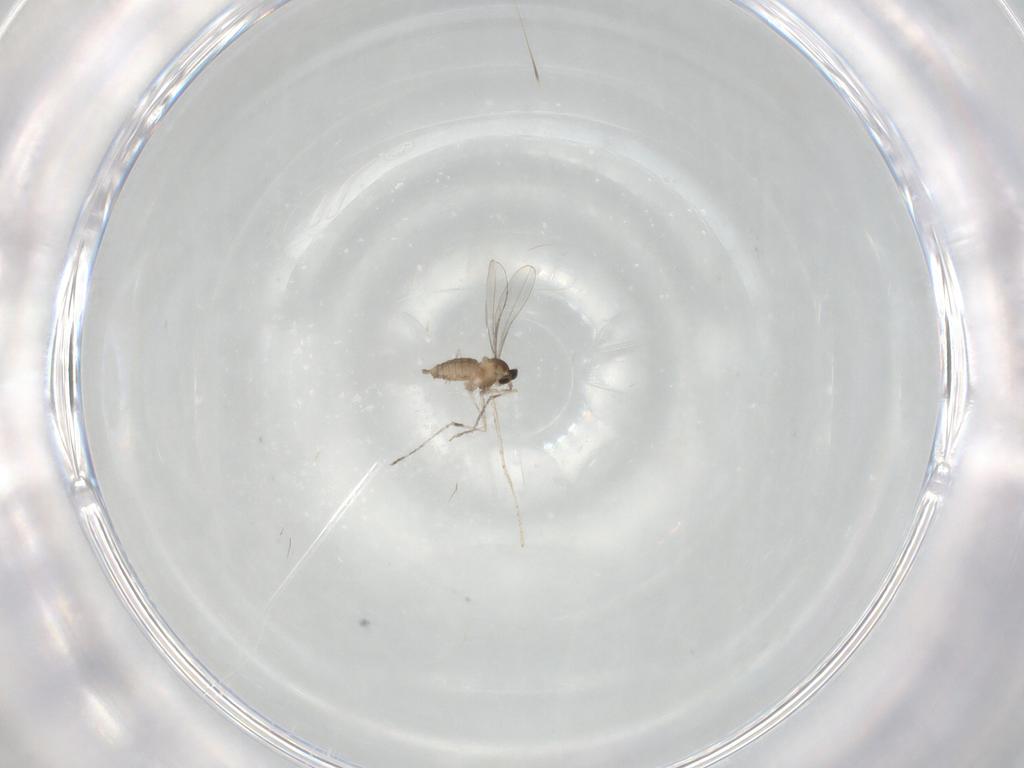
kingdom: Animalia
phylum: Arthropoda
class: Insecta
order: Diptera
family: Cecidomyiidae
